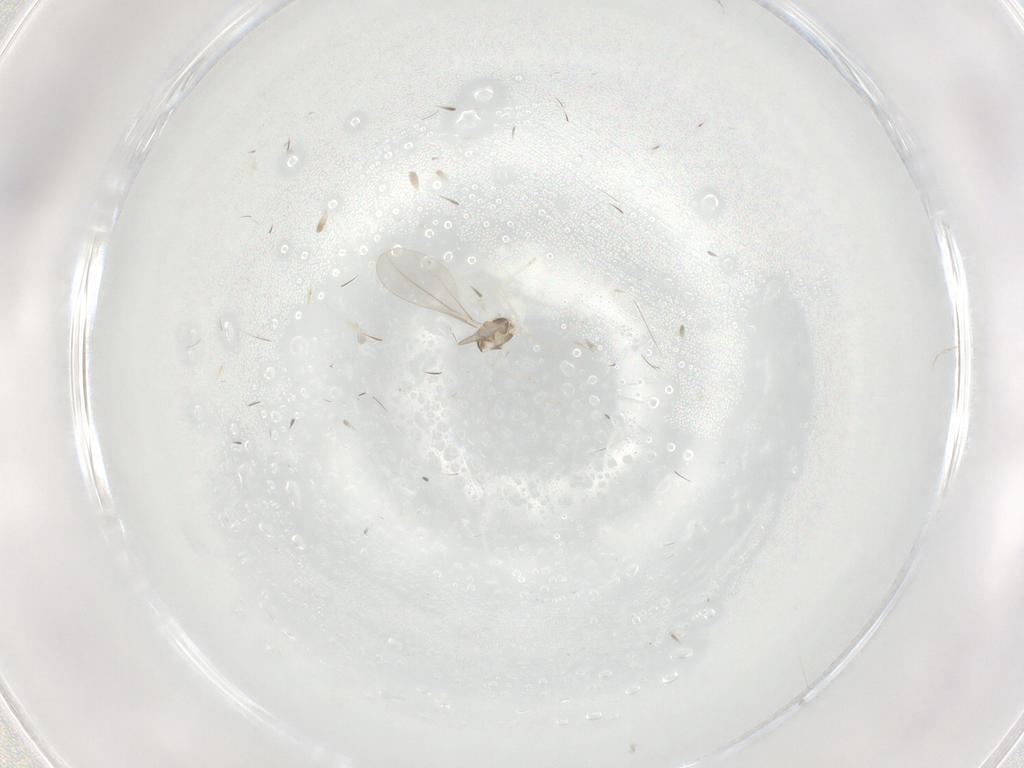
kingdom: Animalia
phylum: Arthropoda
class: Insecta
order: Diptera
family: Cecidomyiidae
